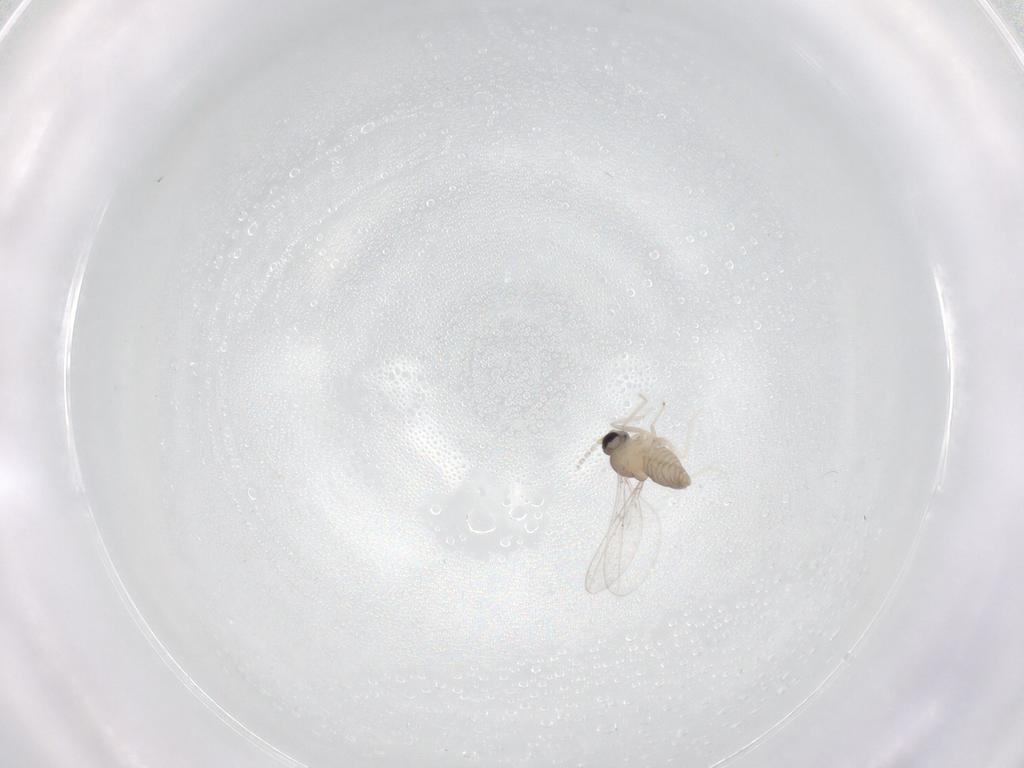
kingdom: Animalia
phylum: Arthropoda
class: Insecta
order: Diptera
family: Cecidomyiidae
